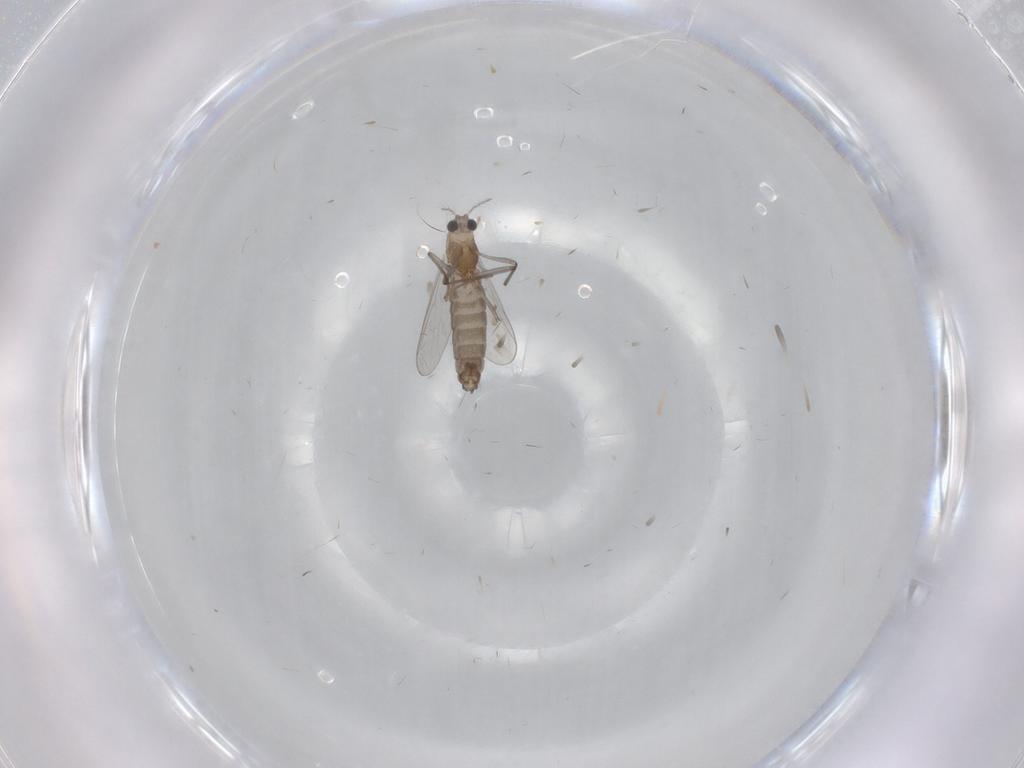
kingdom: Animalia
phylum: Arthropoda
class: Insecta
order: Diptera
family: Chironomidae
